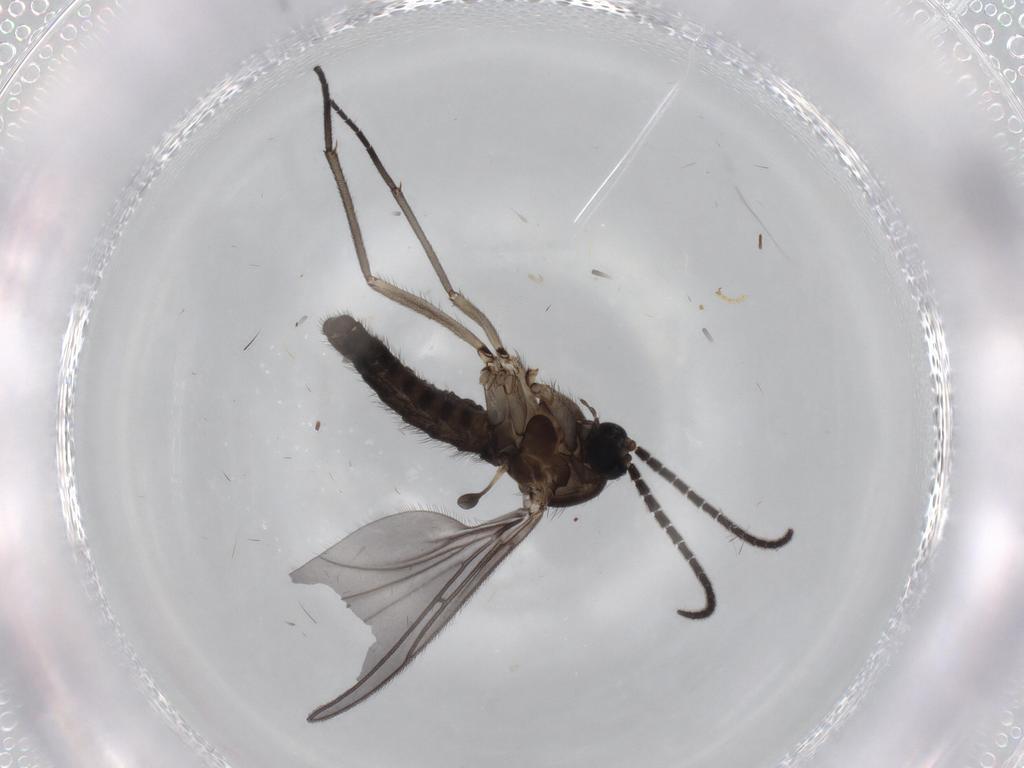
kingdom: Animalia
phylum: Arthropoda
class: Insecta
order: Diptera
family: Sciaridae
